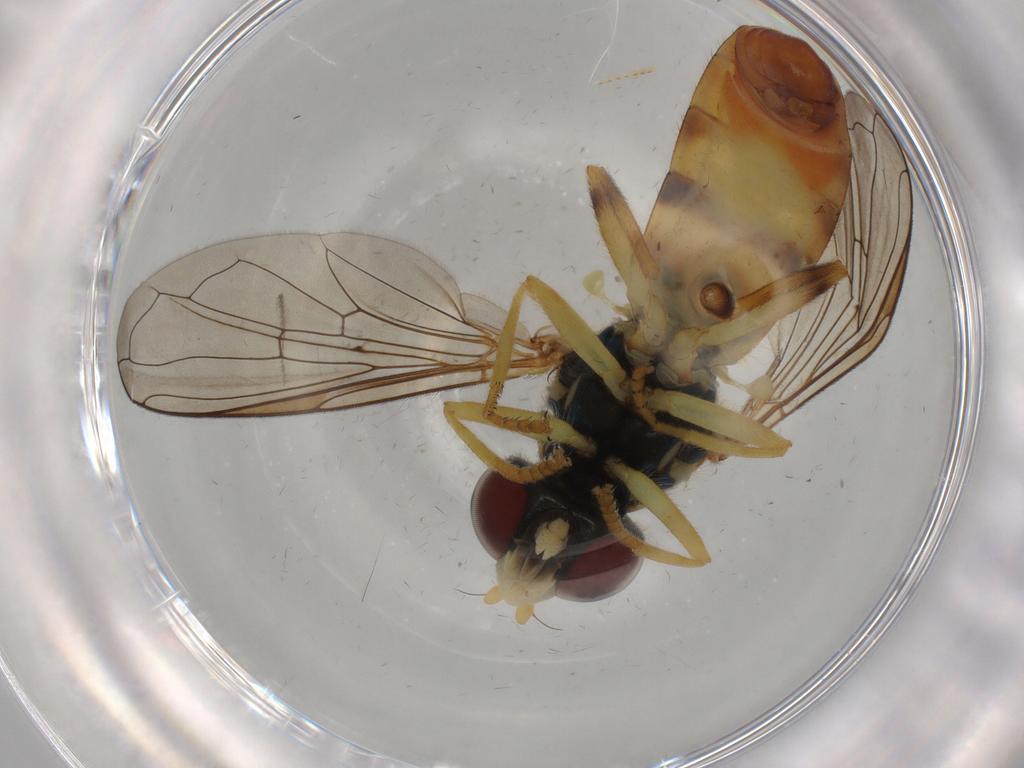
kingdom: Animalia
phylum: Arthropoda
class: Insecta
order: Diptera
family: Syrphidae
